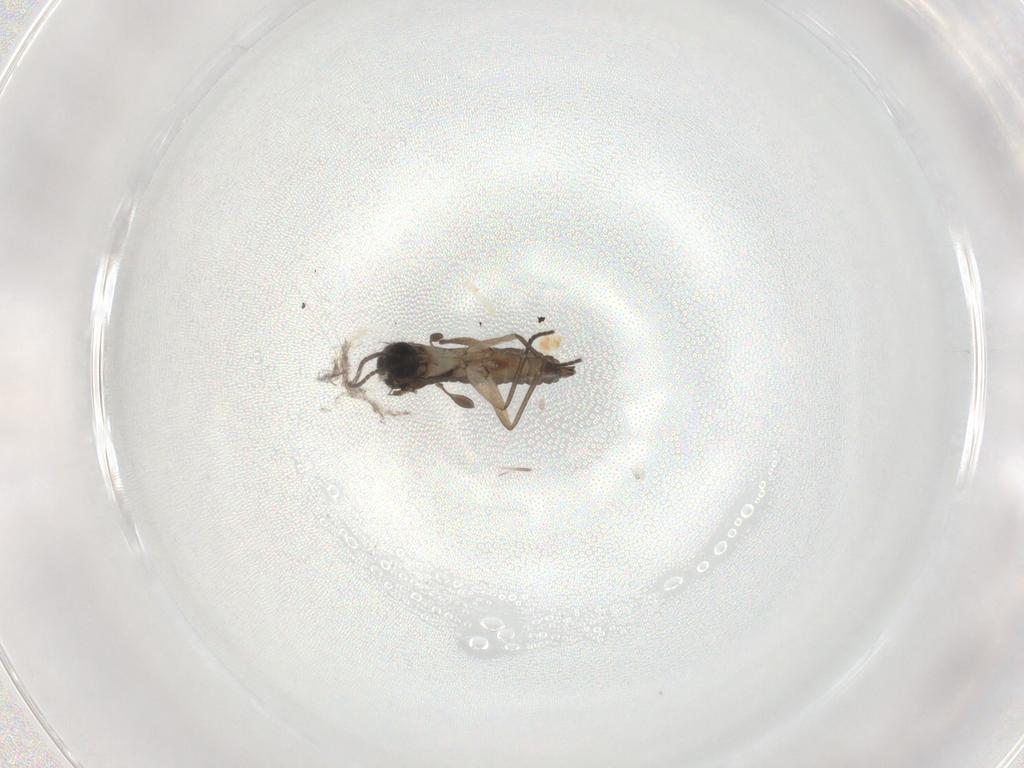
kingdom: Animalia
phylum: Arthropoda
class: Insecta
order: Diptera
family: Sciaridae
